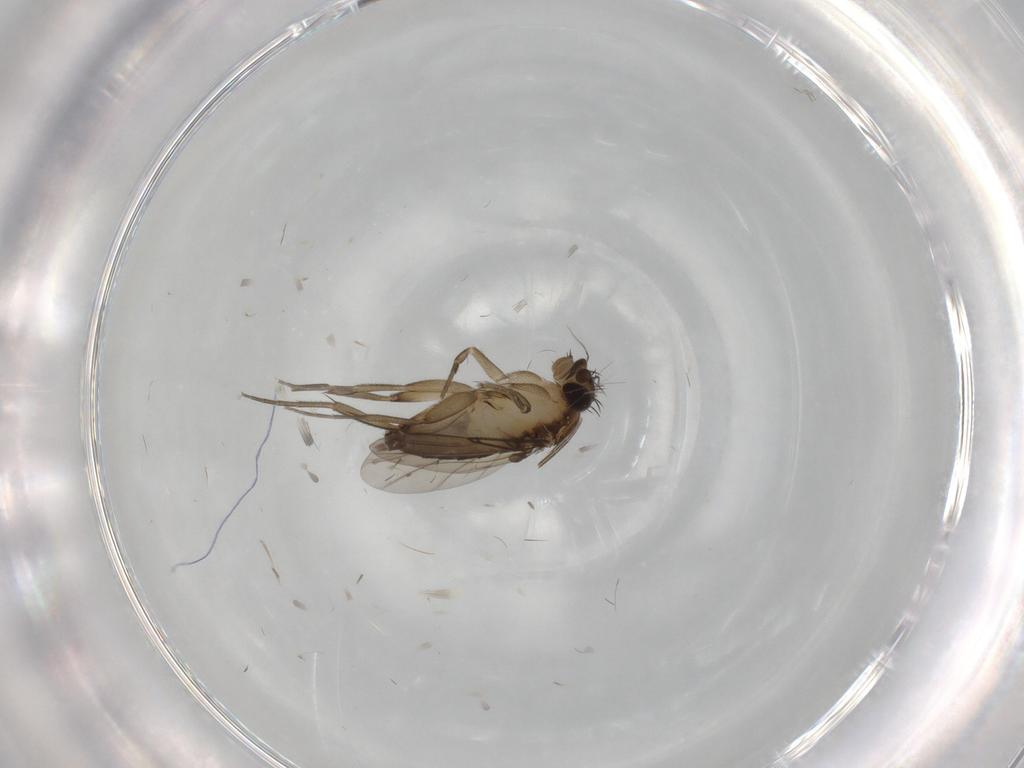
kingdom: Animalia
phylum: Arthropoda
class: Insecta
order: Diptera
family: Phoridae
